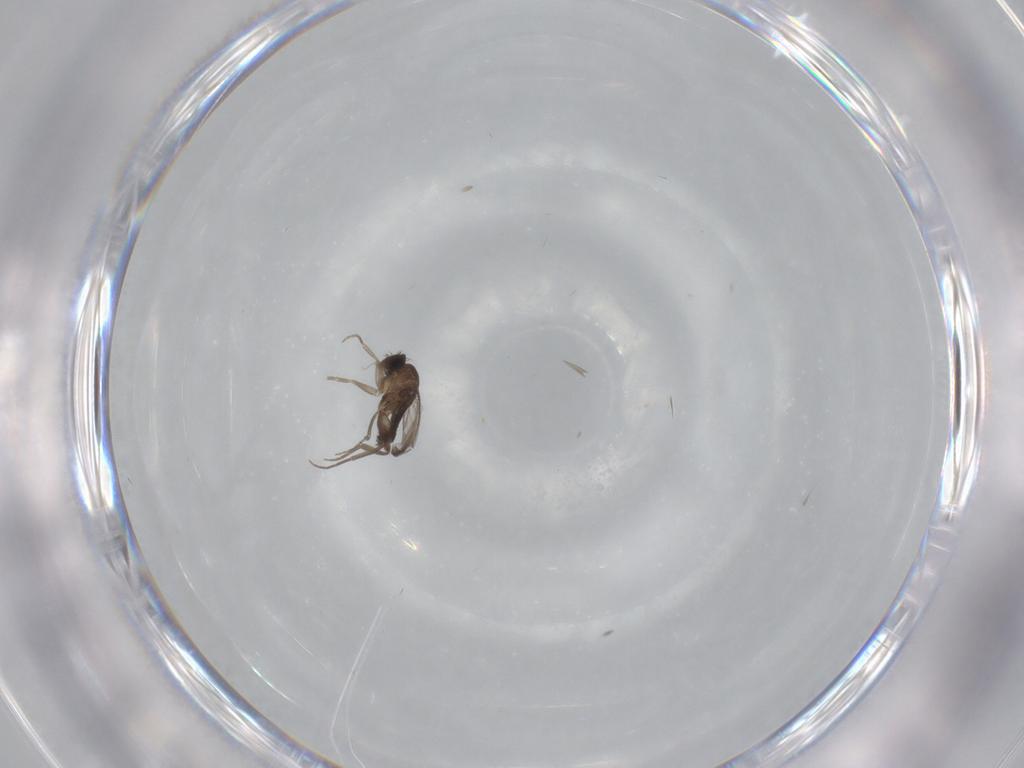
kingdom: Animalia
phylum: Arthropoda
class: Insecta
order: Diptera
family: Phoridae
